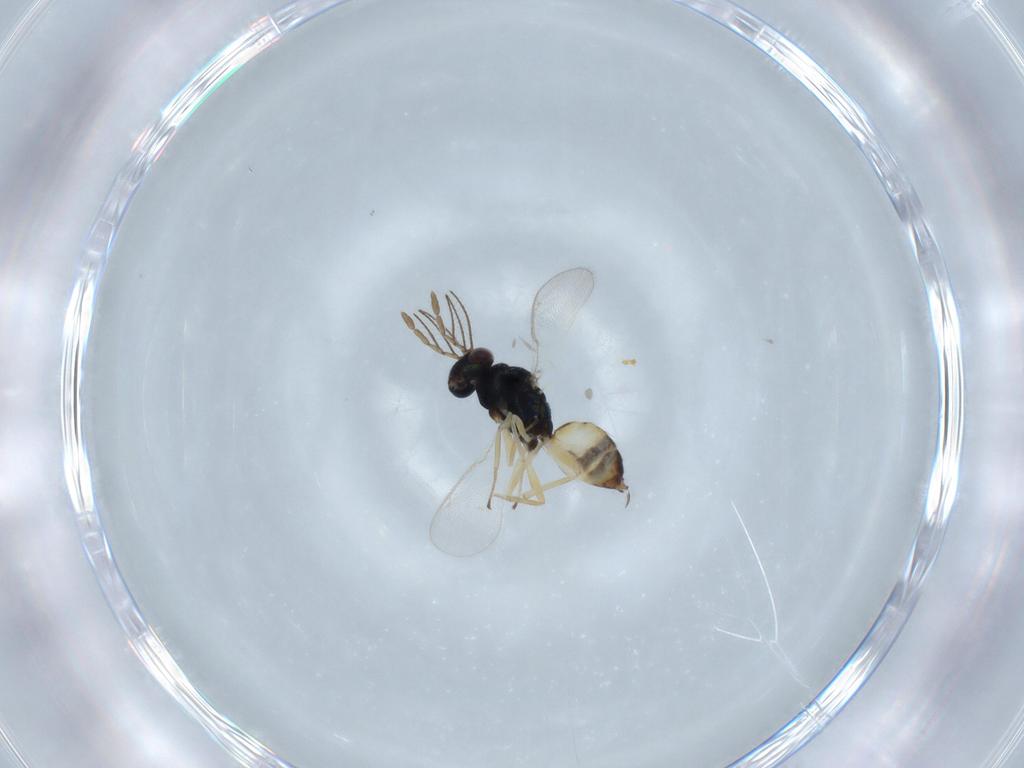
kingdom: Animalia
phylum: Arthropoda
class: Insecta
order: Hymenoptera
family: Eulophidae
